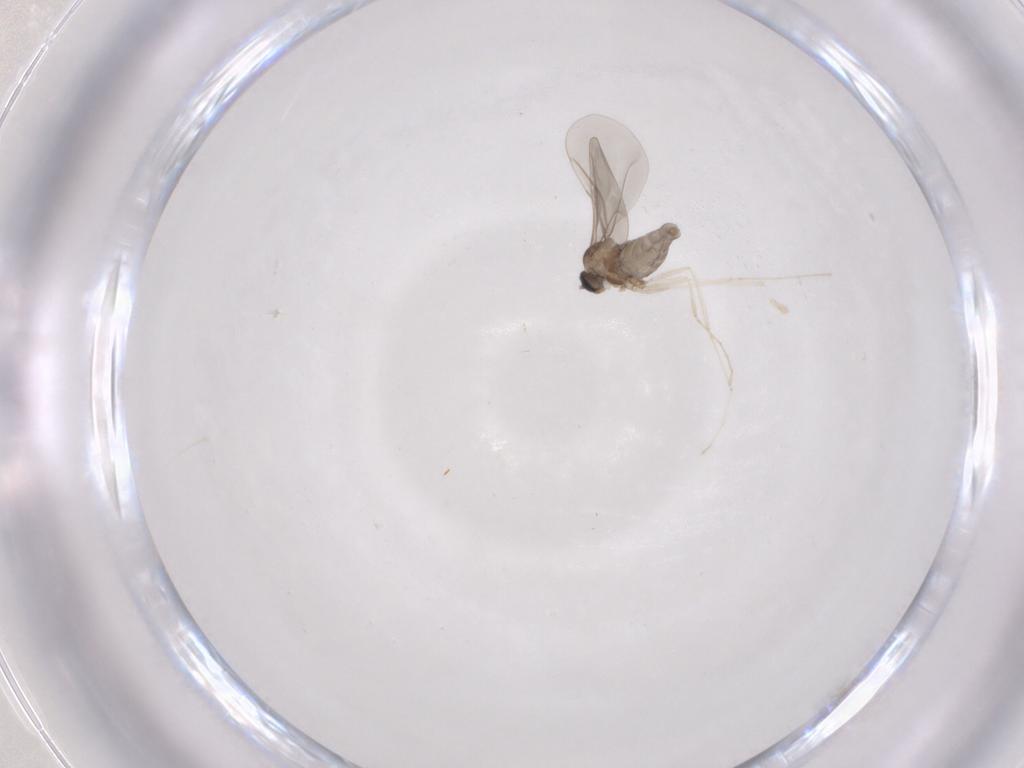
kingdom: Animalia
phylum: Arthropoda
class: Insecta
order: Diptera
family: Cecidomyiidae
